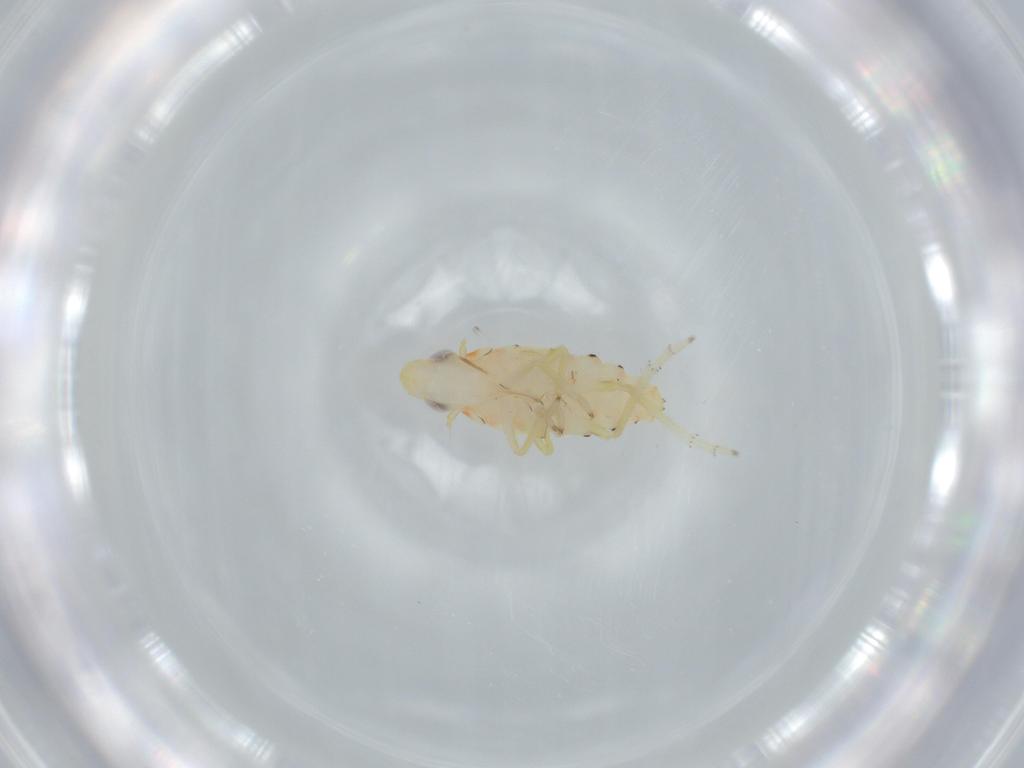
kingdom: Animalia
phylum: Arthropoda
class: Insecta
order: Hemiptera
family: Tropiduchidae
